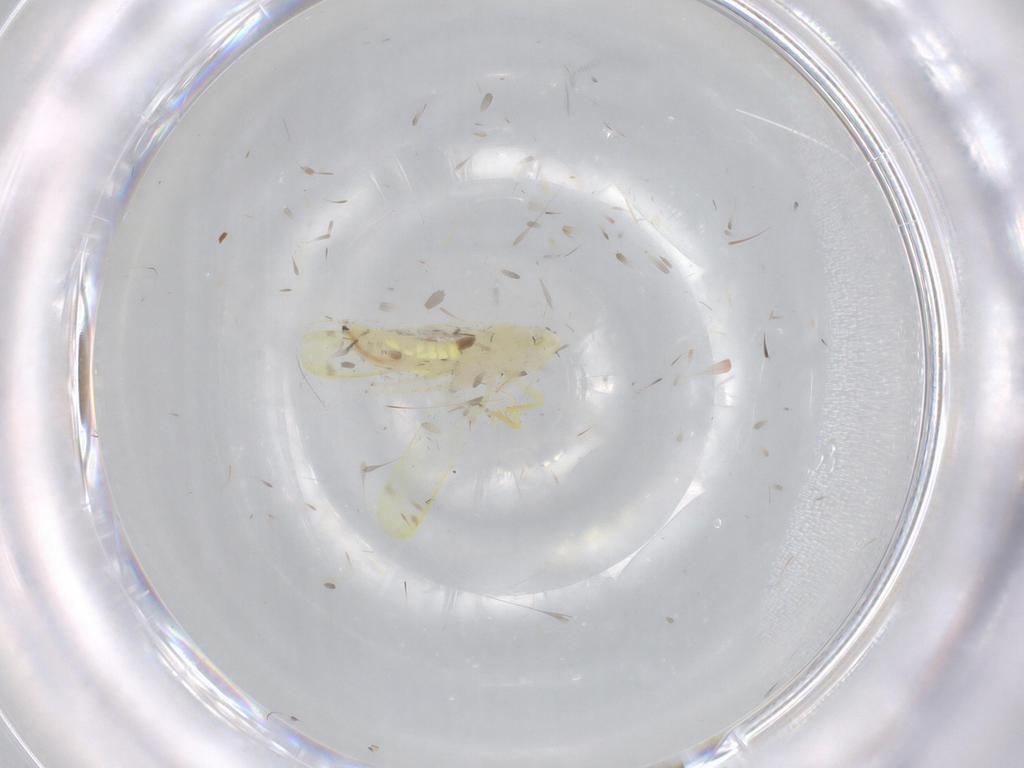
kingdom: Animalia
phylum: Arthropoda
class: Insecta
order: Hemiptera
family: Cicadellidae
